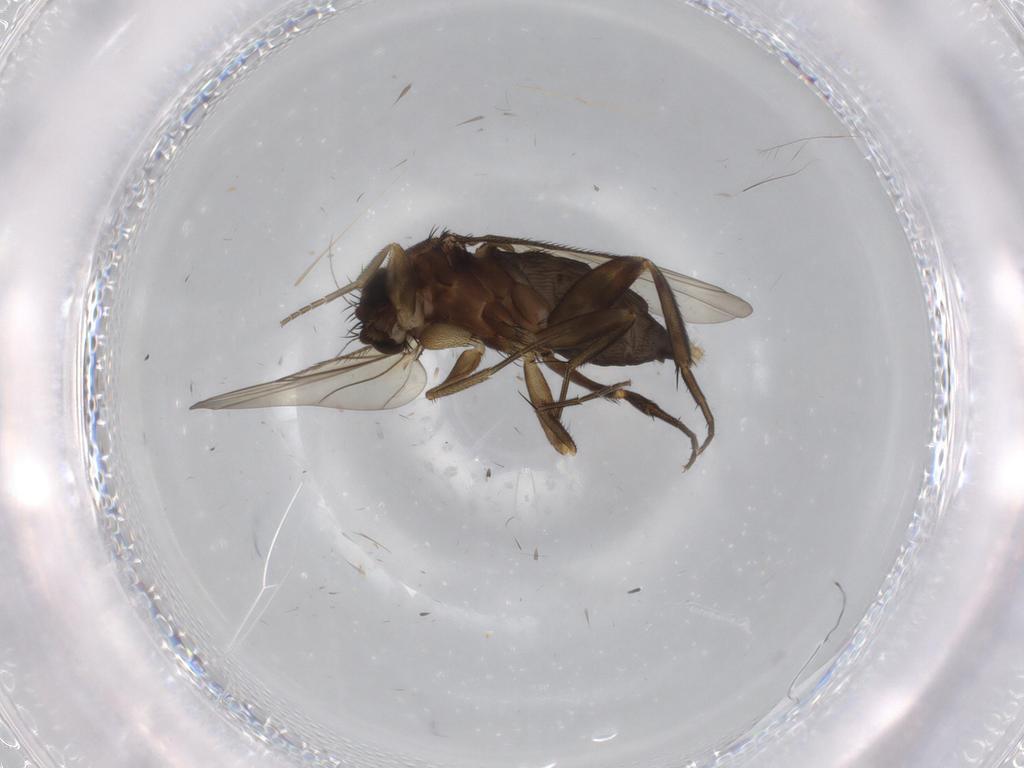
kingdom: Animalia
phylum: Arthropoda
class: Insecta
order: Diptera
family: Phoridae
